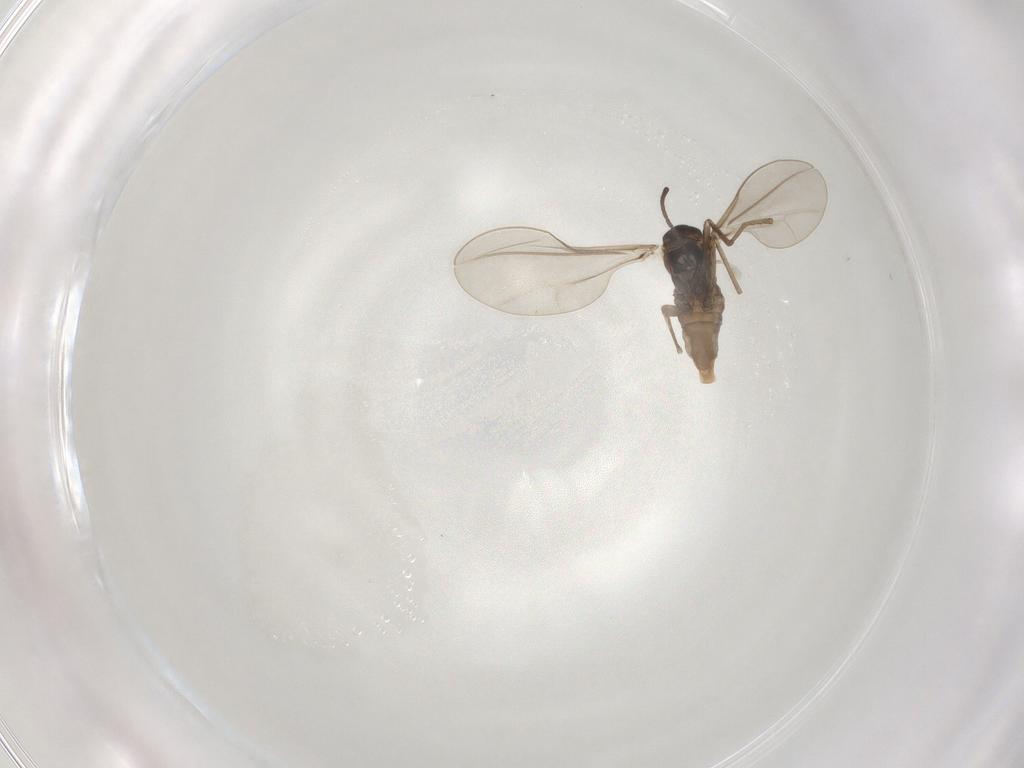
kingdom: Animalia
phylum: Arthropoda
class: Insecta
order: Diptera
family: Cecidomyiidae
